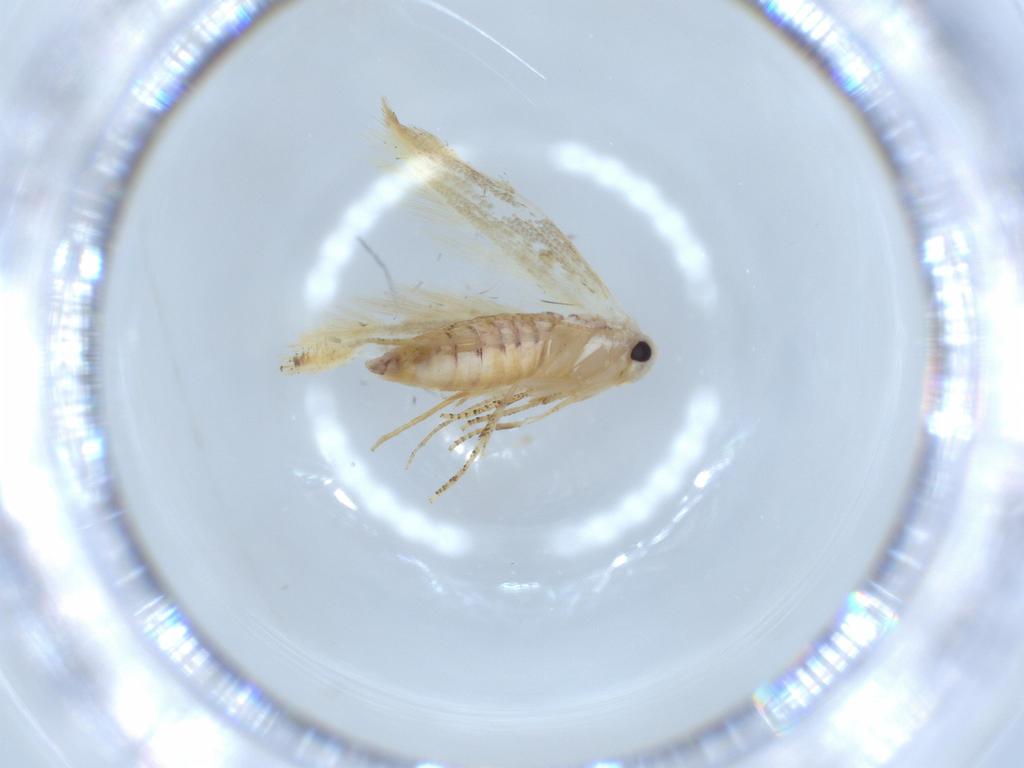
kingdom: Animalia
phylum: Arthropoda
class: Insecta
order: Lepidoptera
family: Bucculatricidae
